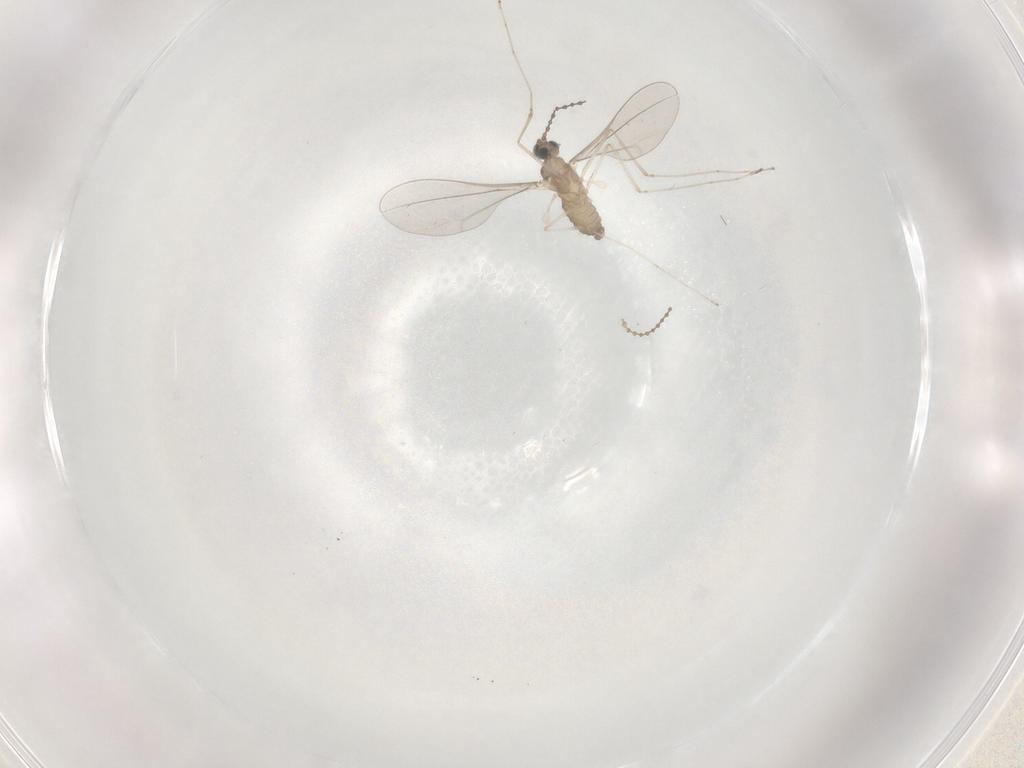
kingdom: Animalia
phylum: Arthropoda
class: Insecta
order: Diptera
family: Cecidomyiidae
